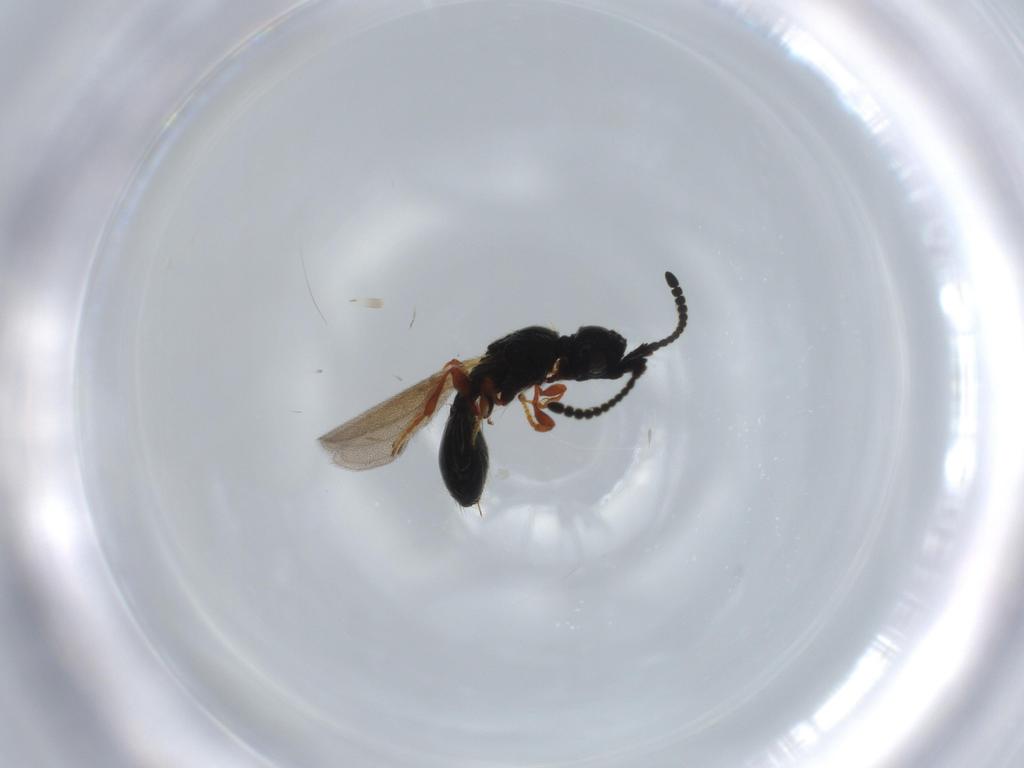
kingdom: Animalia
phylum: Arthropoda
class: Insecta
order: Hymenoptera
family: Diapriidae
